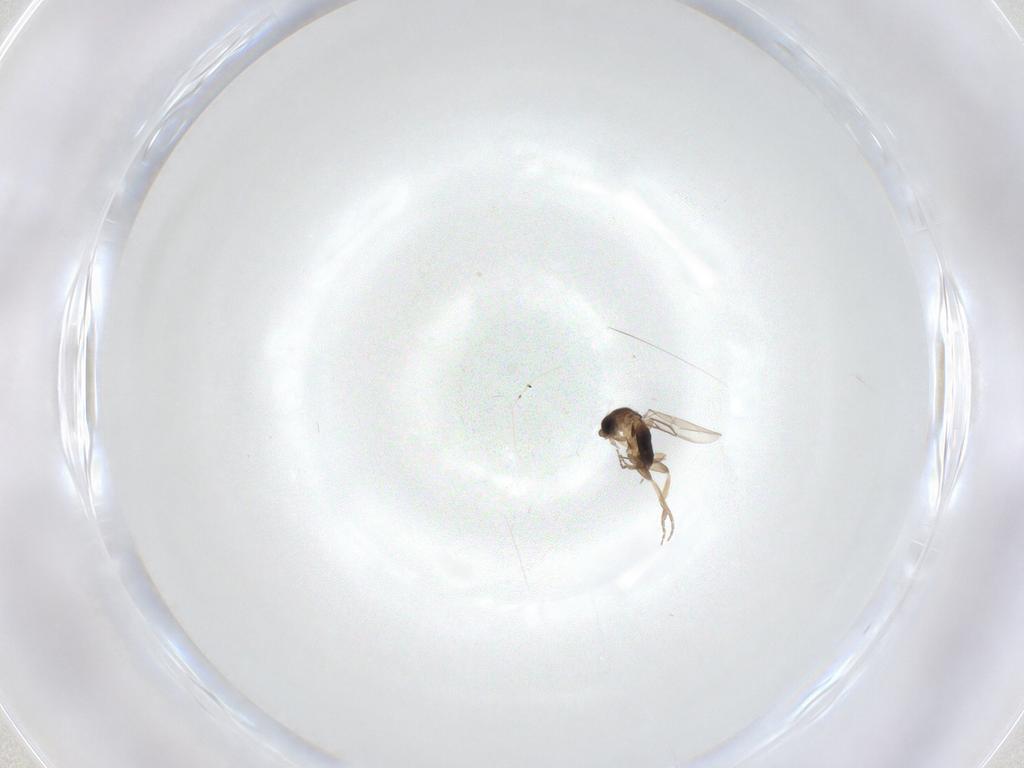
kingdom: Animalia
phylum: Arthropoda
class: Insecta
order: Diptera
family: Phoridae
